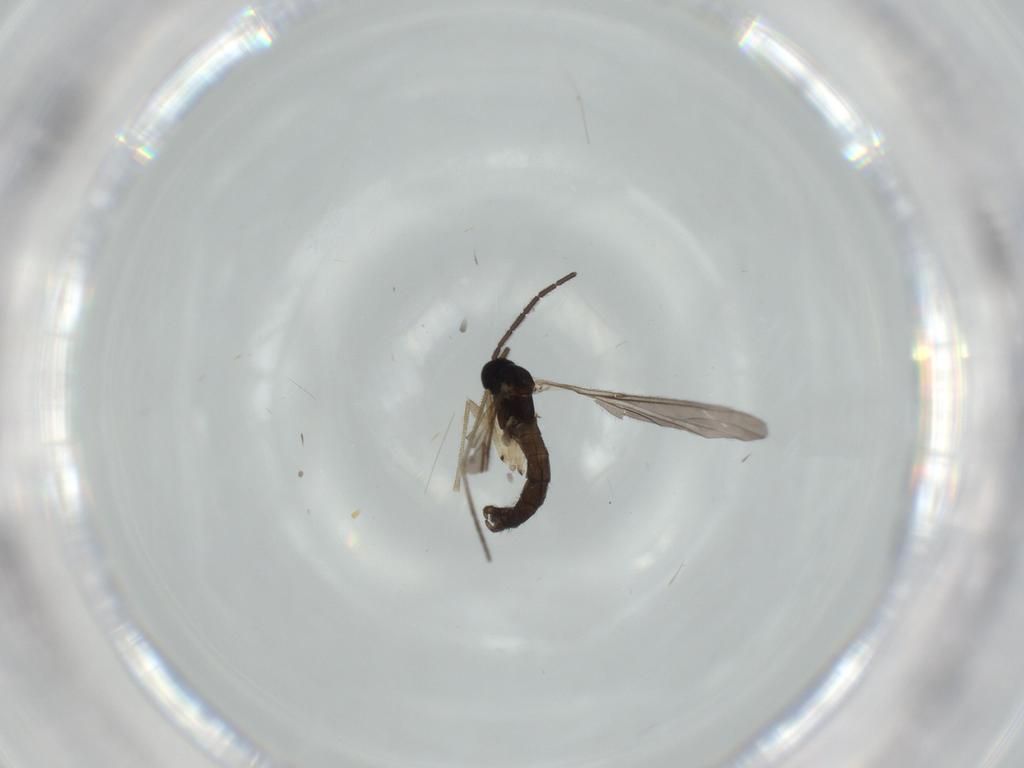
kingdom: Animalia
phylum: Arthropoda
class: Insecta
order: Diptera
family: Sciaridae
